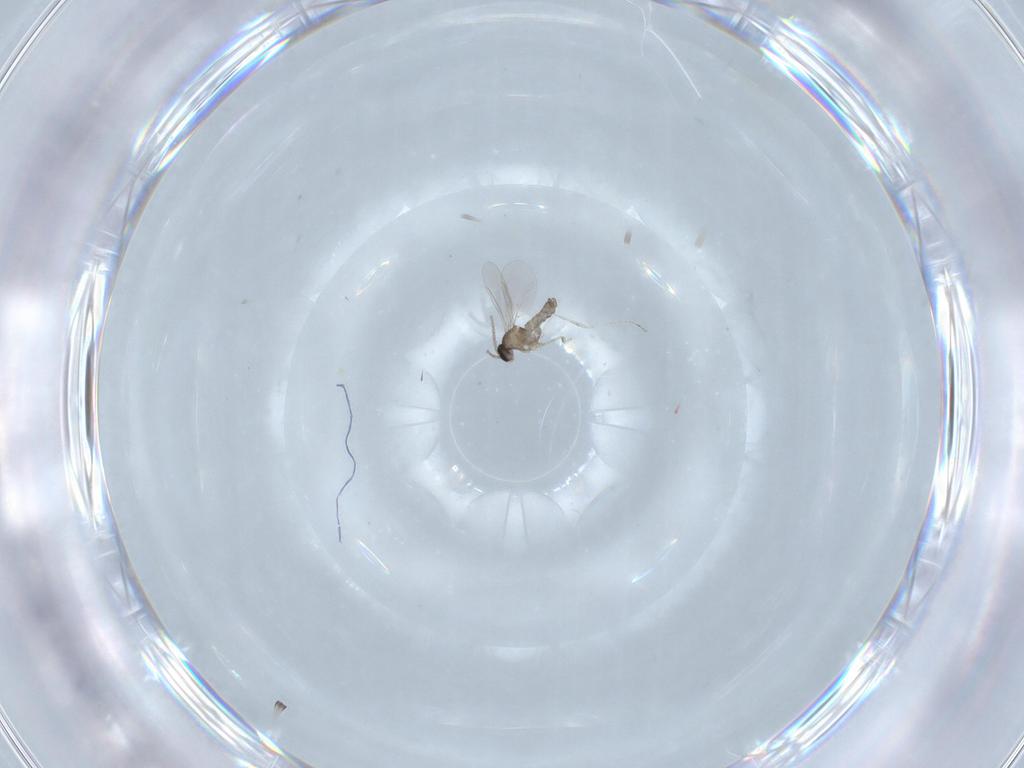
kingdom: Animalia
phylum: Arthropoda
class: Insecta
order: Diptera
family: Cecidomyiidae
